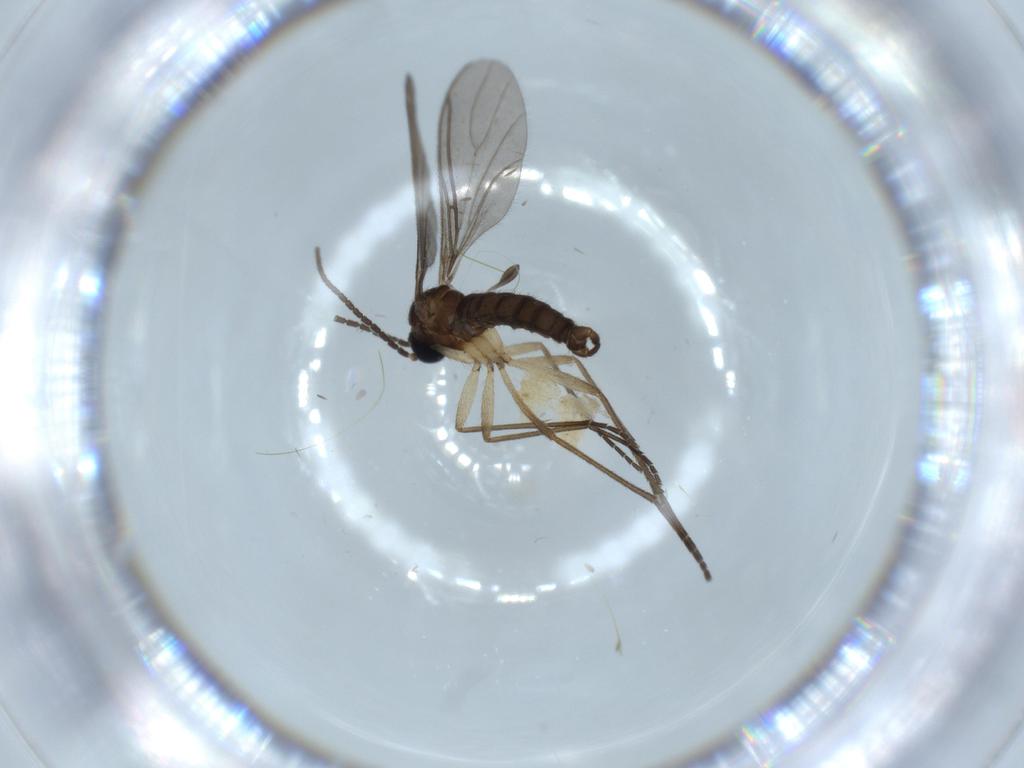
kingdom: Animalia
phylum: Arthropoda
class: Insecta
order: Diptera
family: Sciaridae
